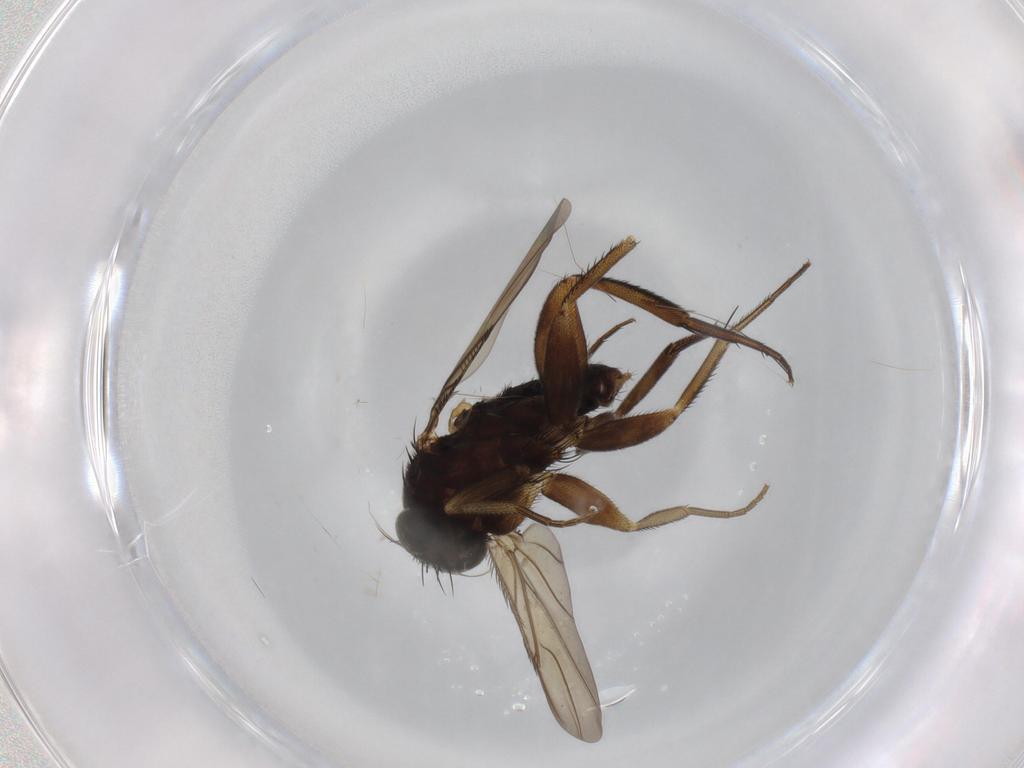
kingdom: Animalia
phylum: Arthropoda
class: Insecta
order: Diptera
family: Phoridae
